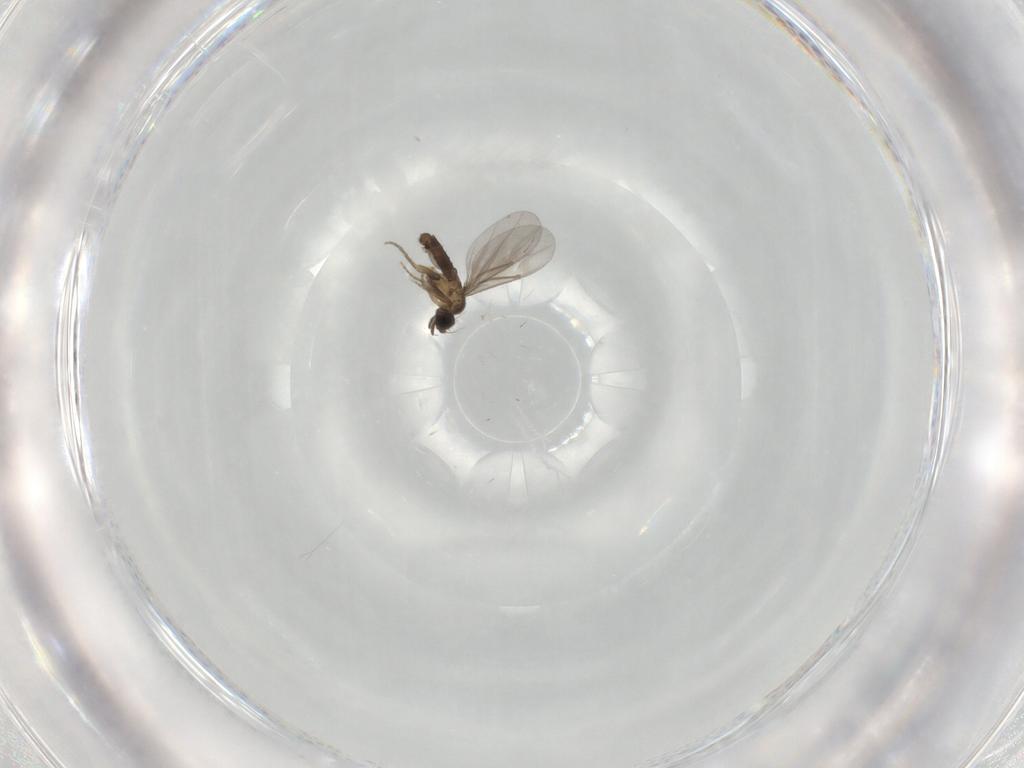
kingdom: Animalia
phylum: Arthropoda
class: Insecta
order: Diptera
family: Phoridae
